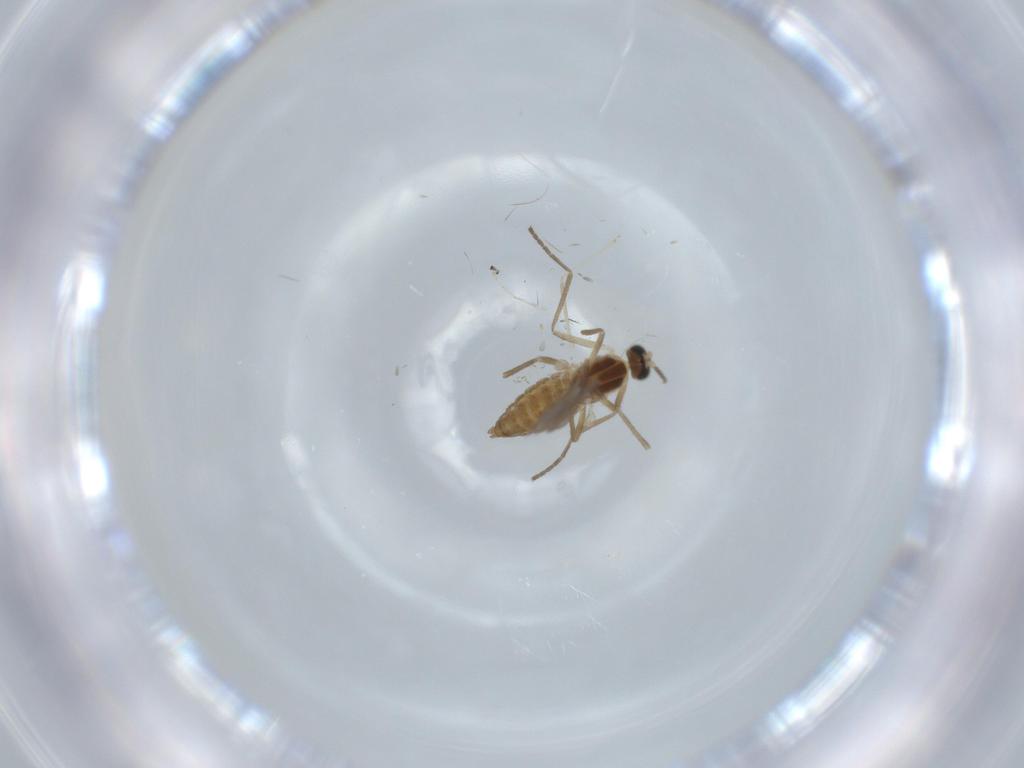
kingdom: Animalia
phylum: Arthropoda
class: Insecta
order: Diptera
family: Cecidomyiidae
